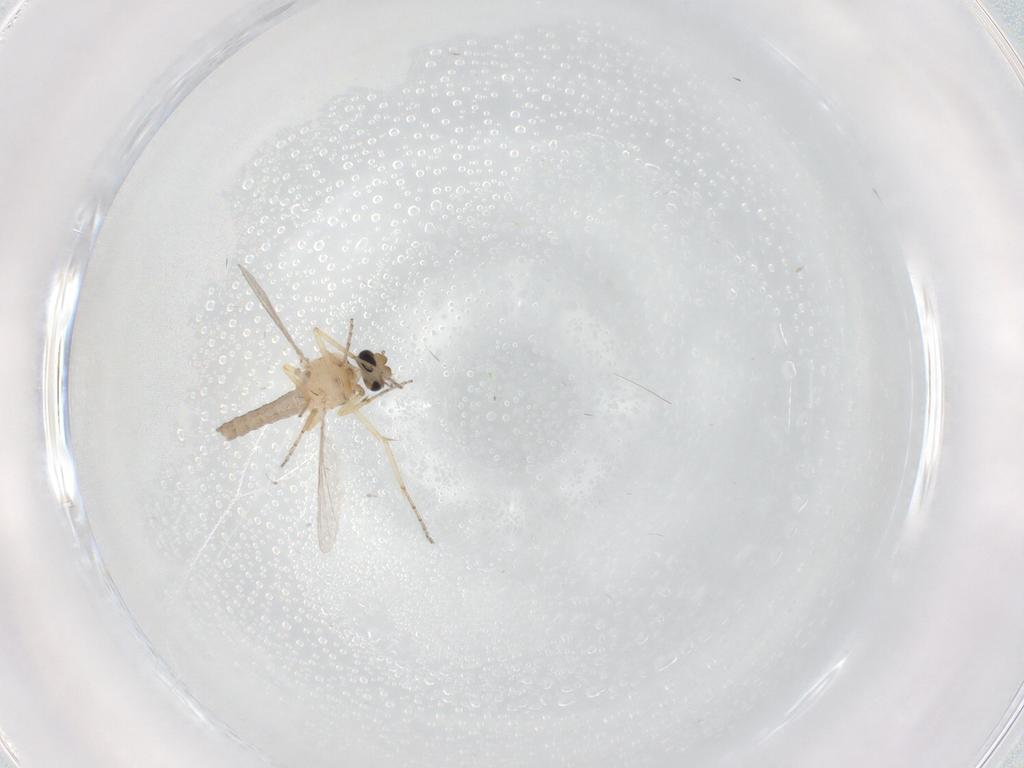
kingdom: Animalia
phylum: Arthropoda
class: Insecta
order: Diptera
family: Ceratopogonidae
